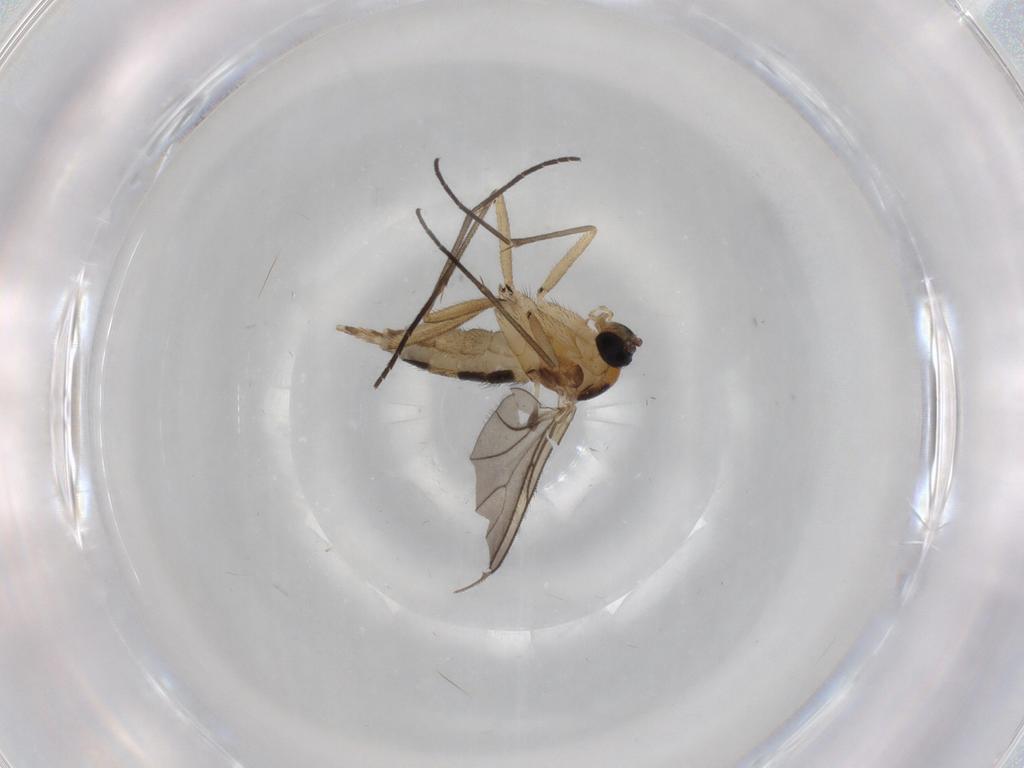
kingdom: Animalia
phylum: Arthropoda
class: Insecta
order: Diptera
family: Sciaridae
